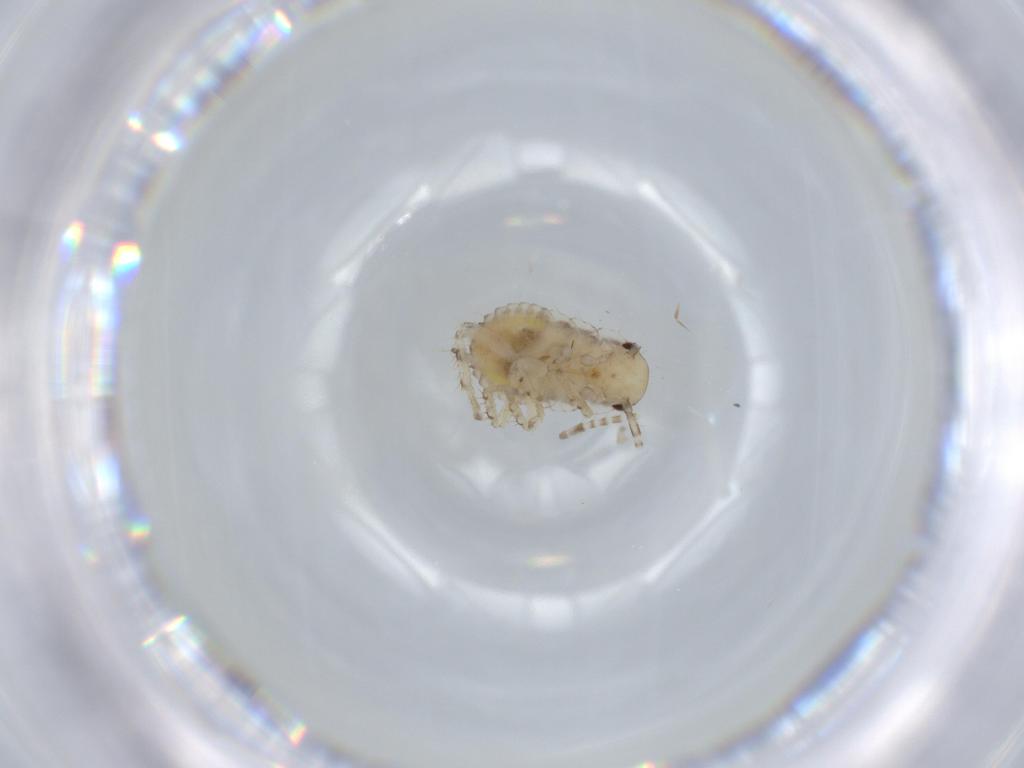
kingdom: Animalia
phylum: Arthropoda
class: Insecta
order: Blattodea
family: Ectobiidae
